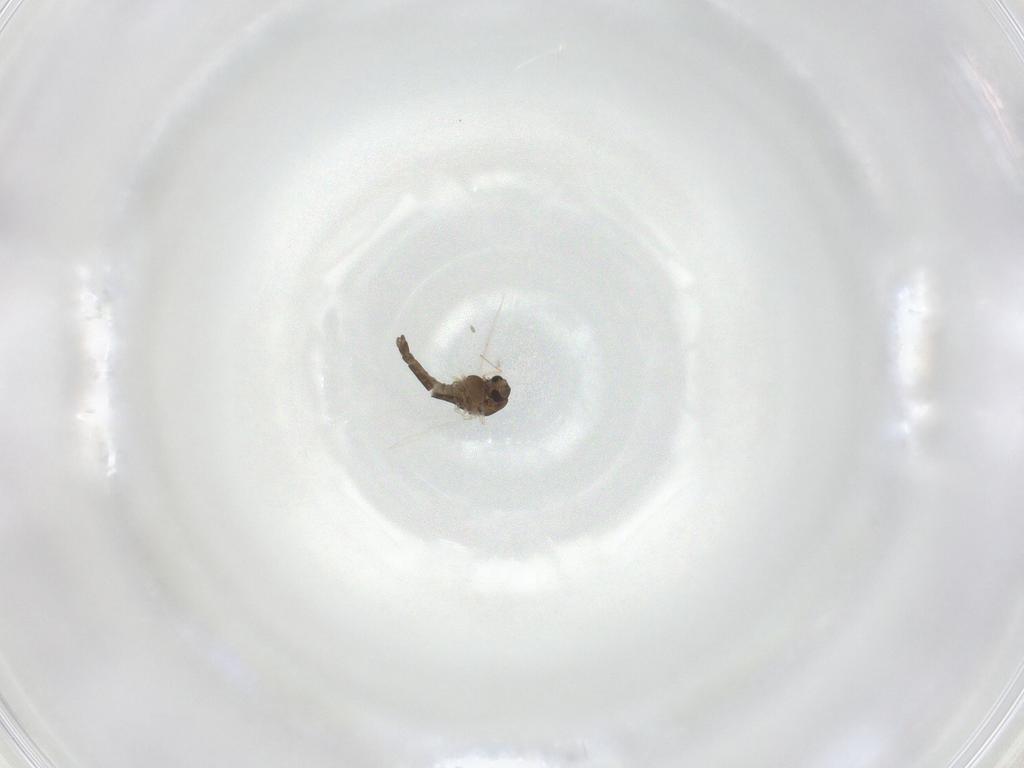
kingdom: Animalia
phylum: Arthropoda
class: Insecta
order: Diptera
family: Chironomidae
